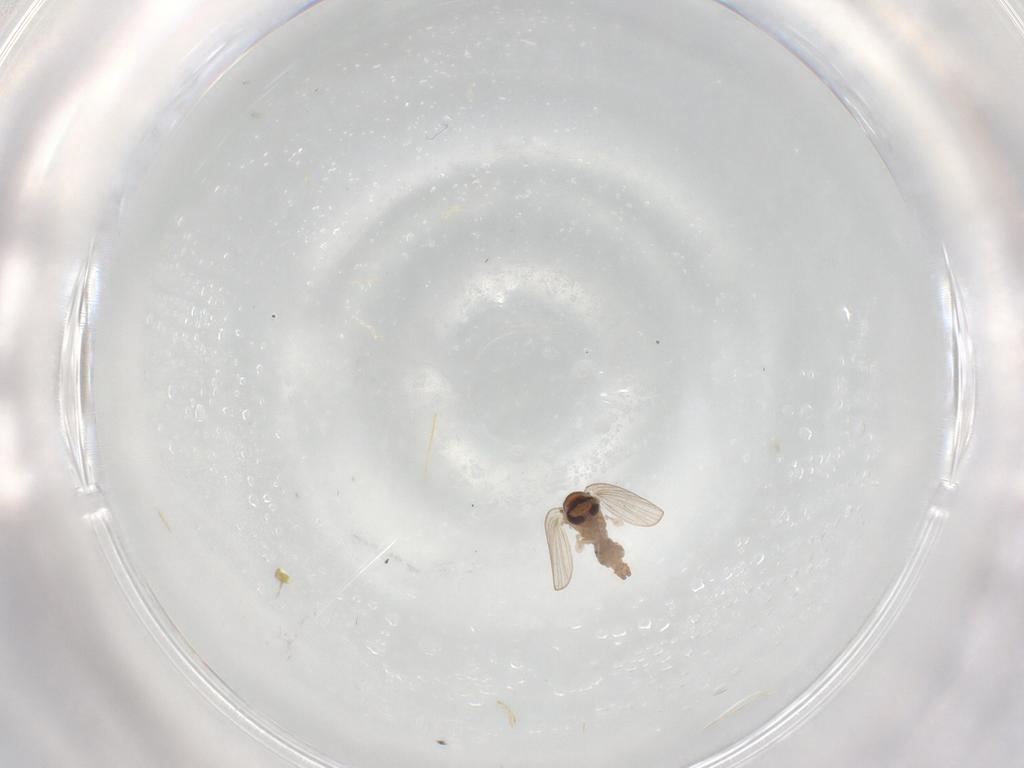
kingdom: Animalia
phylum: Arthropoda
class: Insecta
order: Diptera
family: Psychodidae
